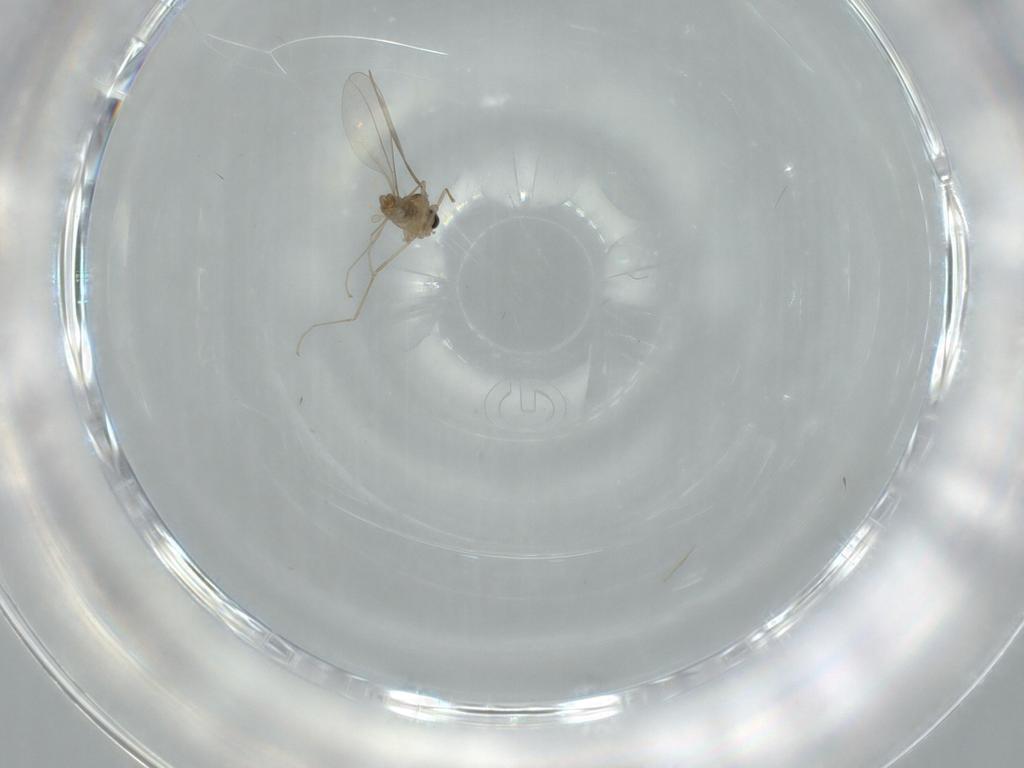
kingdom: Animalia
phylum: Arthropoda
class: Insecta
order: Diptera
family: Cecidomyiidae
